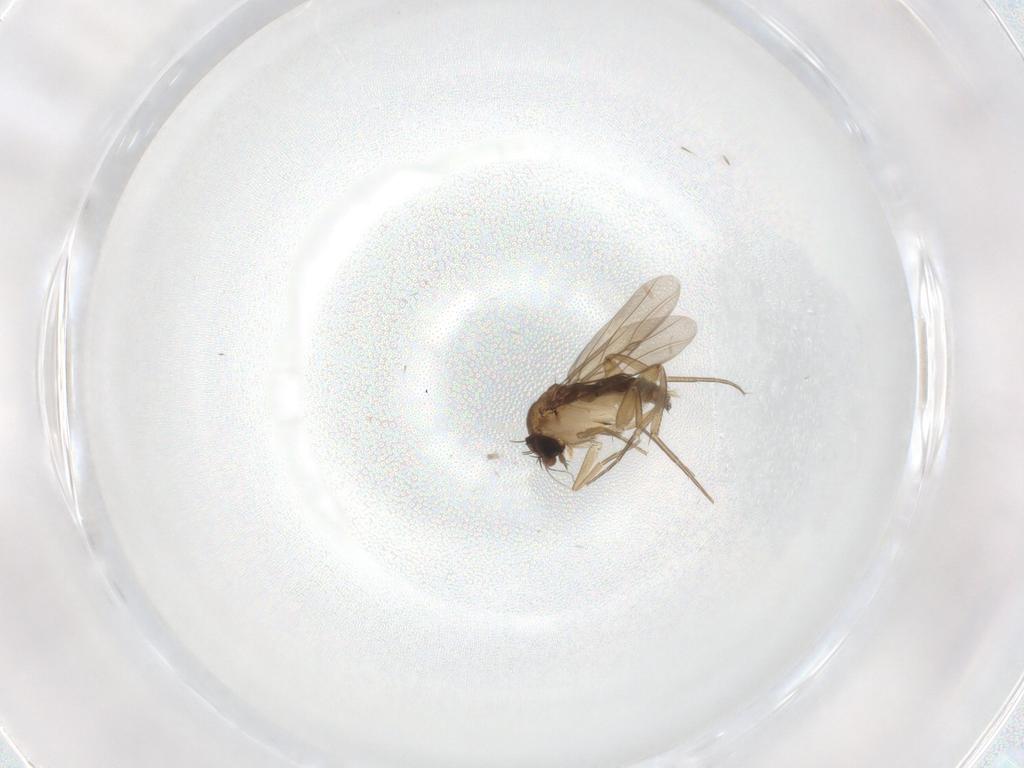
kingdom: Animalia
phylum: Arthropoda
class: Insecta
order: Diptera
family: Phoridae
